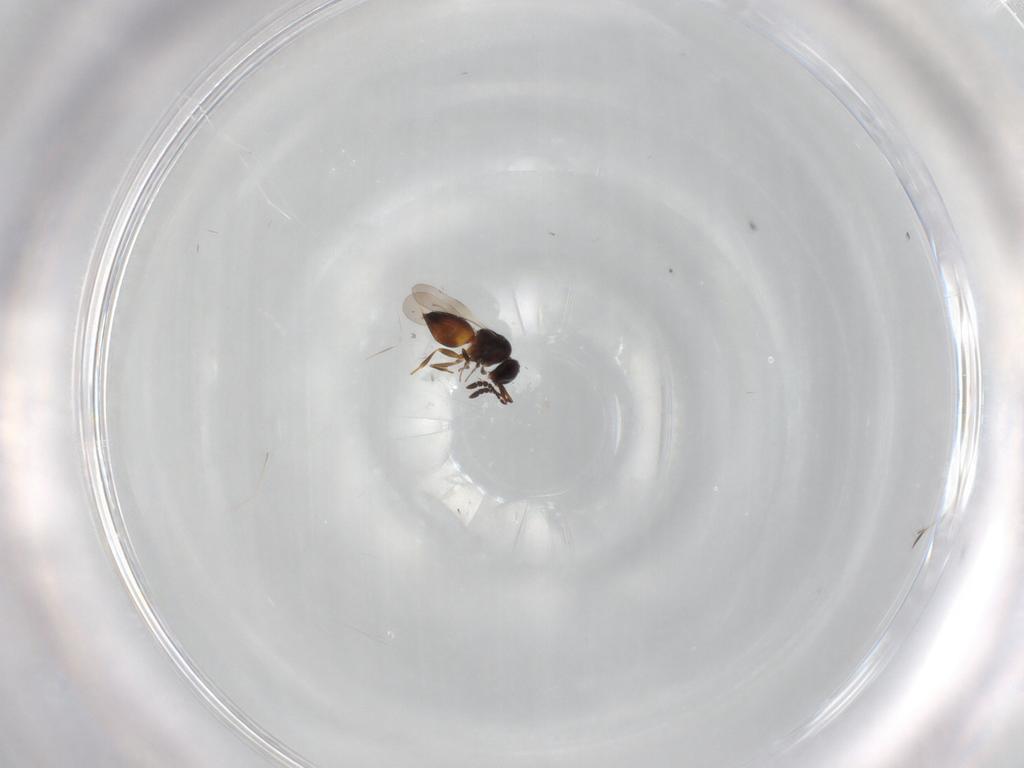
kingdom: Animalia
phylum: Arthropoda
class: Insecta
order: Hymenoptera
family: Ceraphronidae
